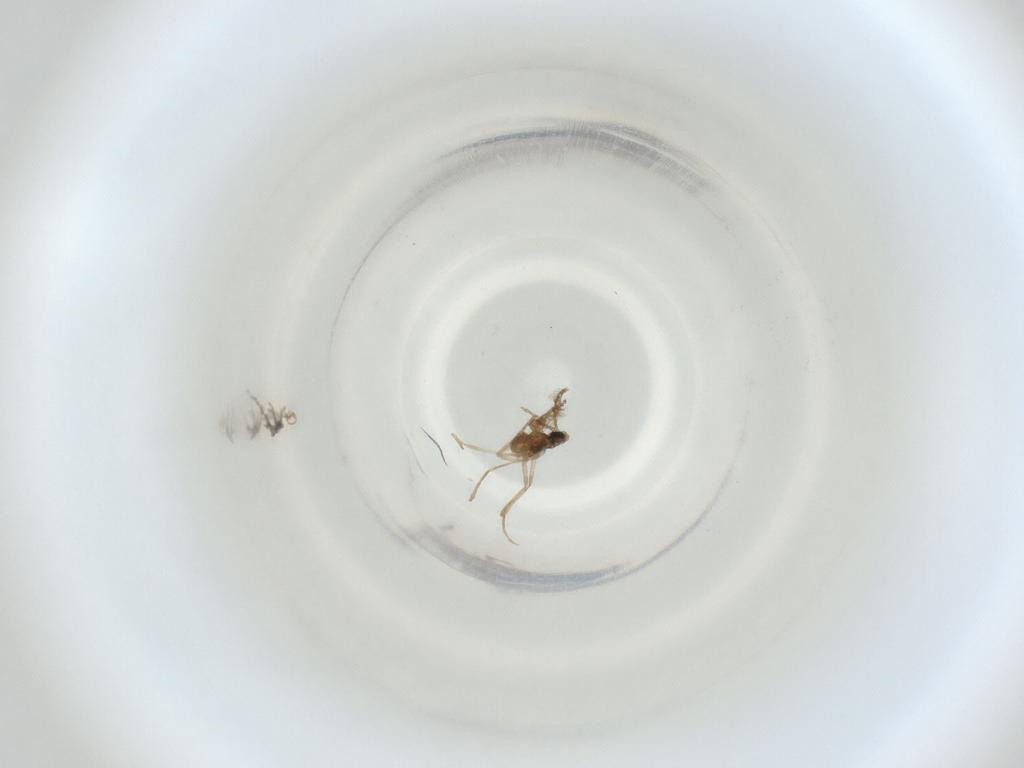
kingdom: Animalia
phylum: Arthropoda
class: Insecta
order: Diptera
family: Cecidomyiidae
